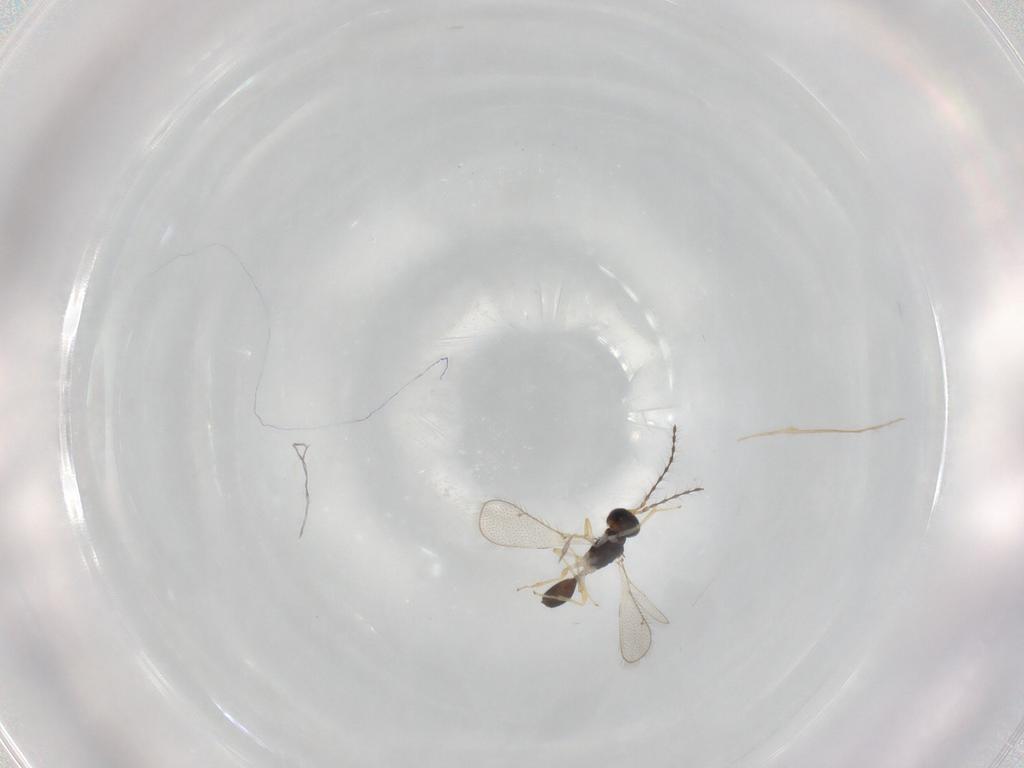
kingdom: Animalia
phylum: Arthropoda
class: Insecta
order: Hymenoptera
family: Diparidae
